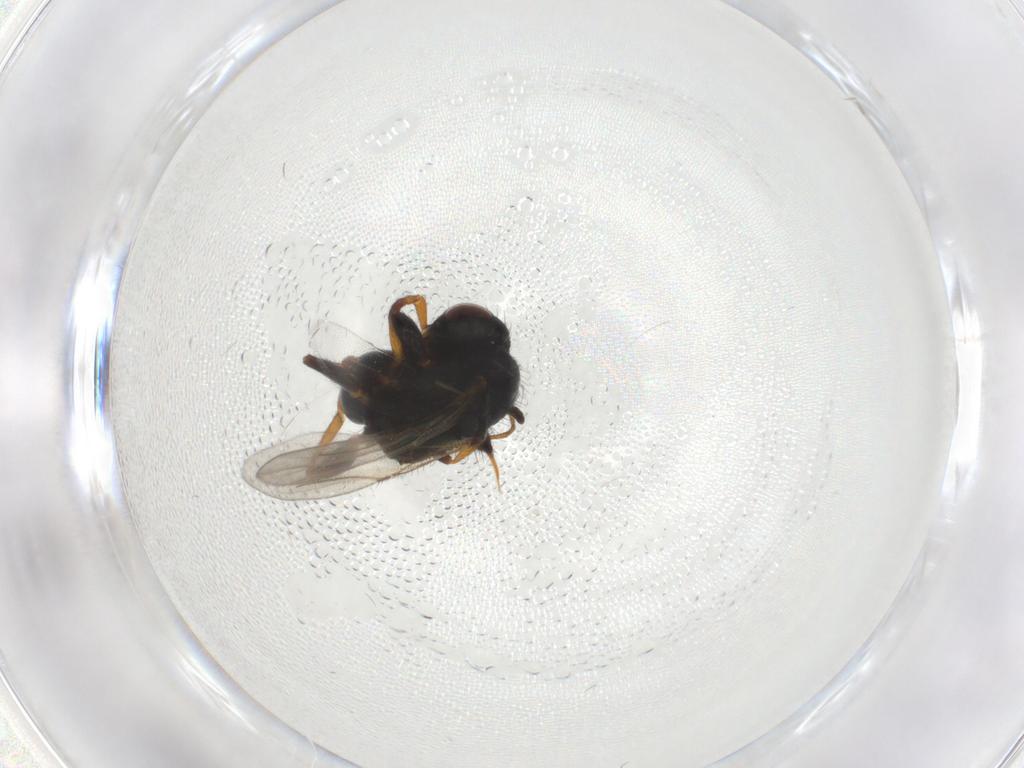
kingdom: Animalia
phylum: Arthropoda
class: Insecta
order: Hymenoptera
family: Bethylidae
